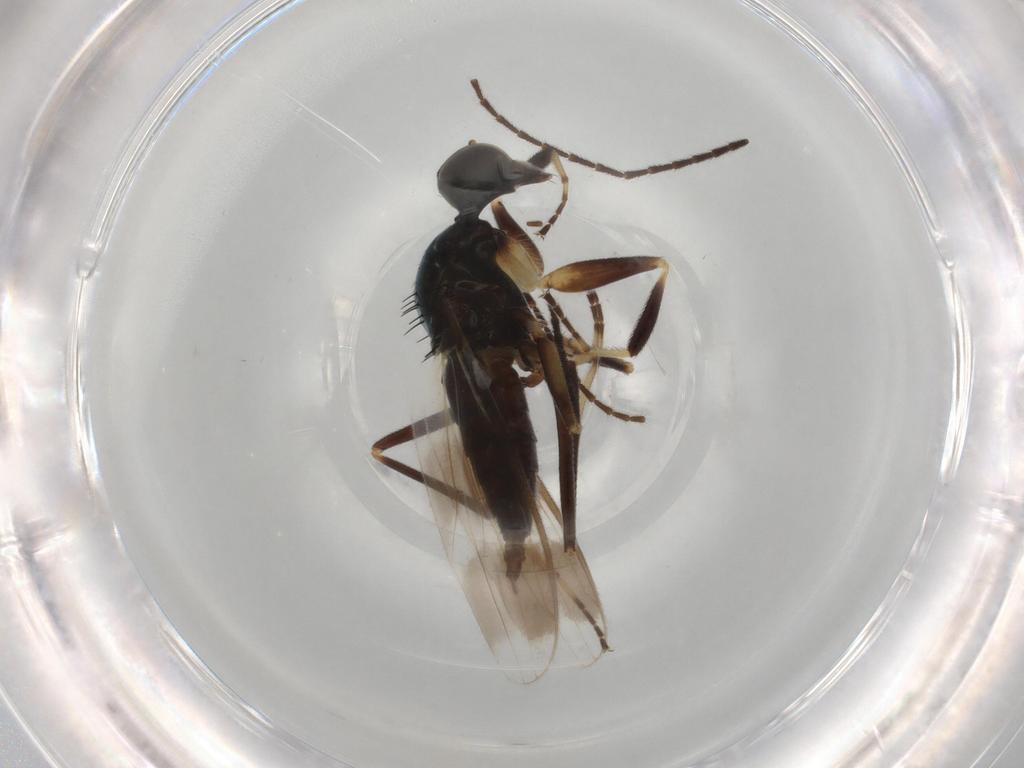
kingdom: Animalia
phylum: Arthropoda
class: Insecta
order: Diptera
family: Hybotidae
